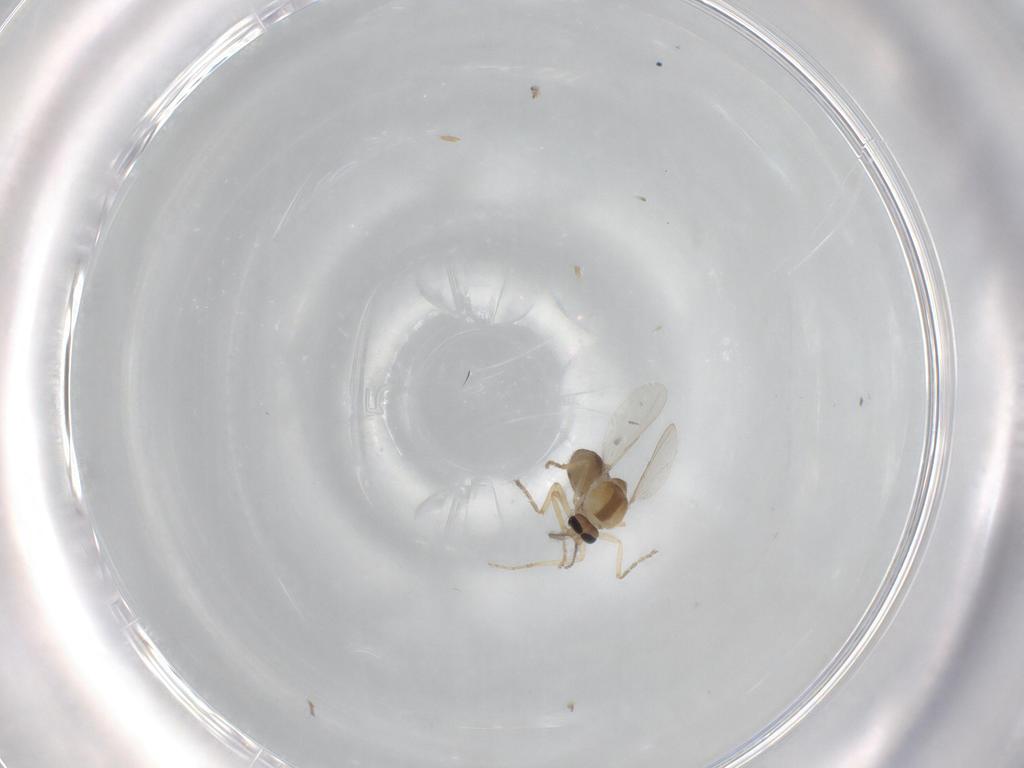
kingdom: Animalia
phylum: Arthropoda
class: Insecta
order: Diptera
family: Ceratopogonidae
